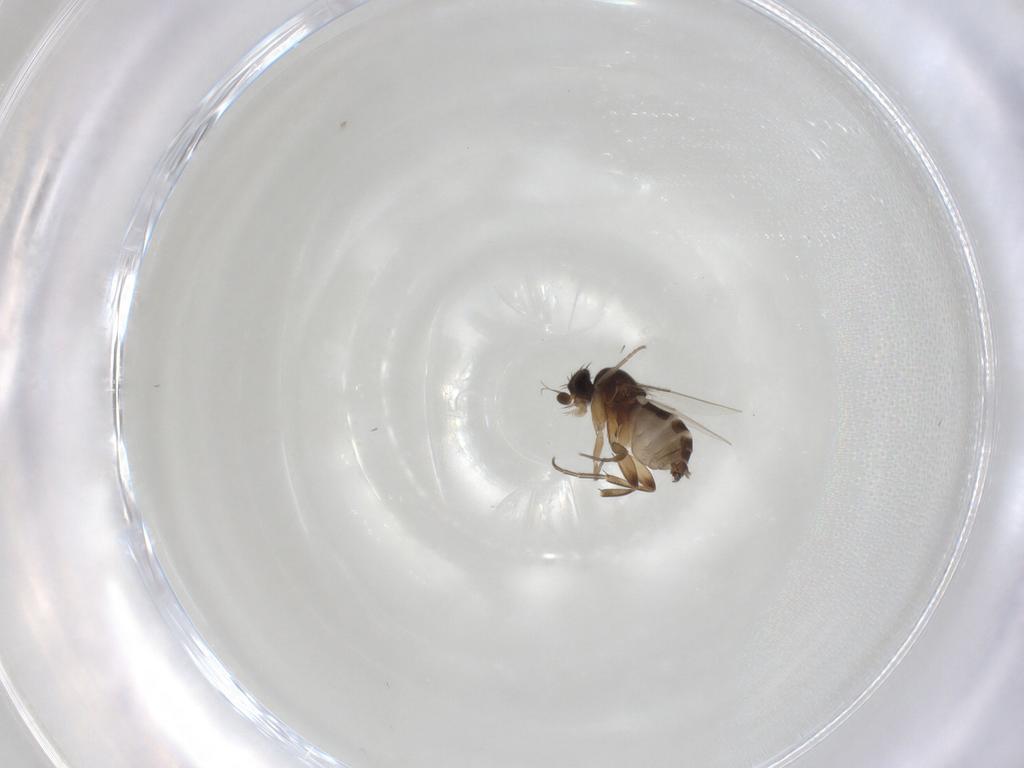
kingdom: Animalia
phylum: Arthropoda
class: Insecta
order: Diptera
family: Phoridae
